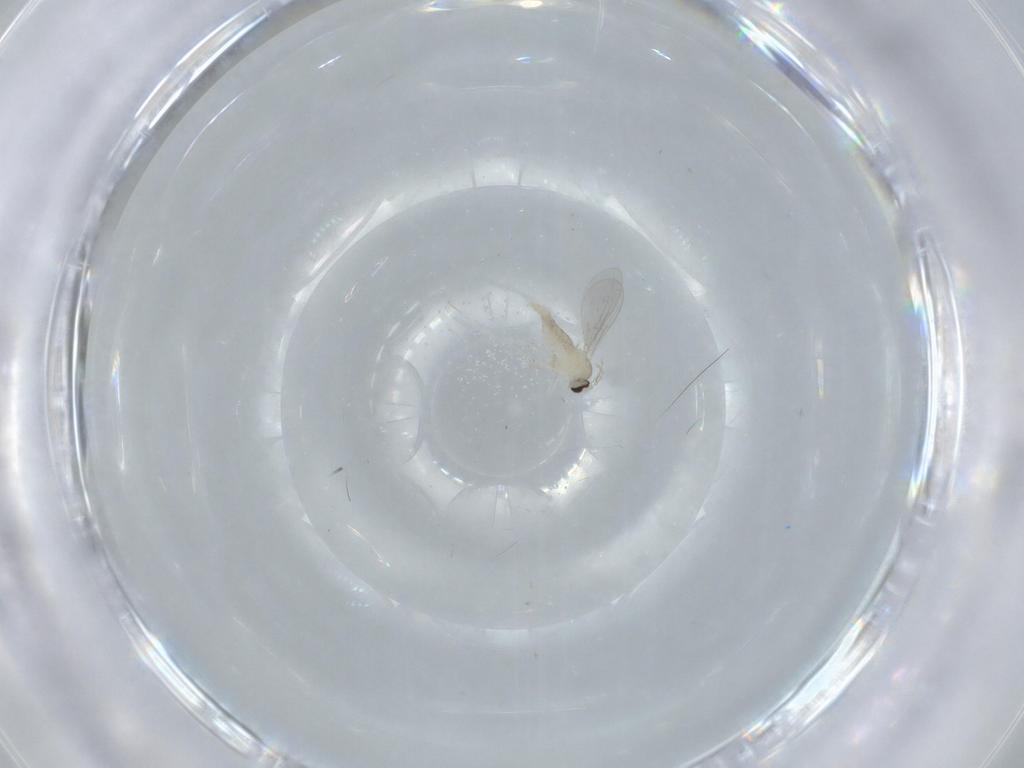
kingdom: Animalia
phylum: Arthropoda
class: Insecta
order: Diptera
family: Cecidomyiidae
